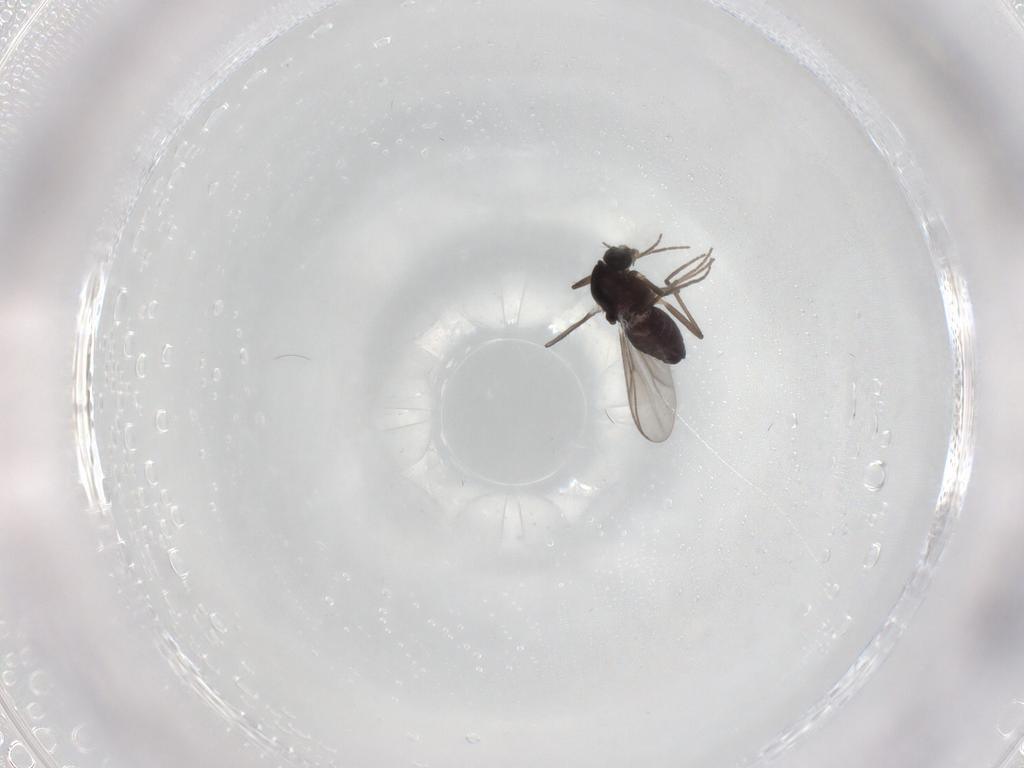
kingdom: Animalia
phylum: Arthropoda
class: Insecta
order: Diptera
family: Chironomidae
